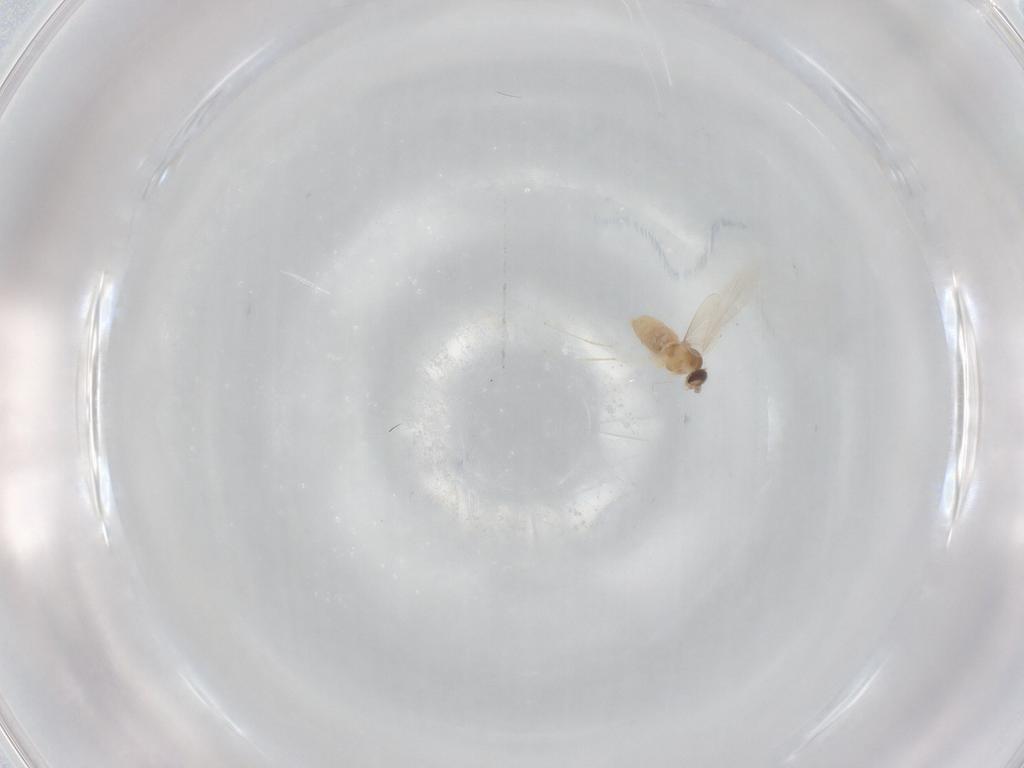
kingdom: Animalia
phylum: Arthropoda
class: Insecta
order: Diptera
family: Cecidomyiidae
